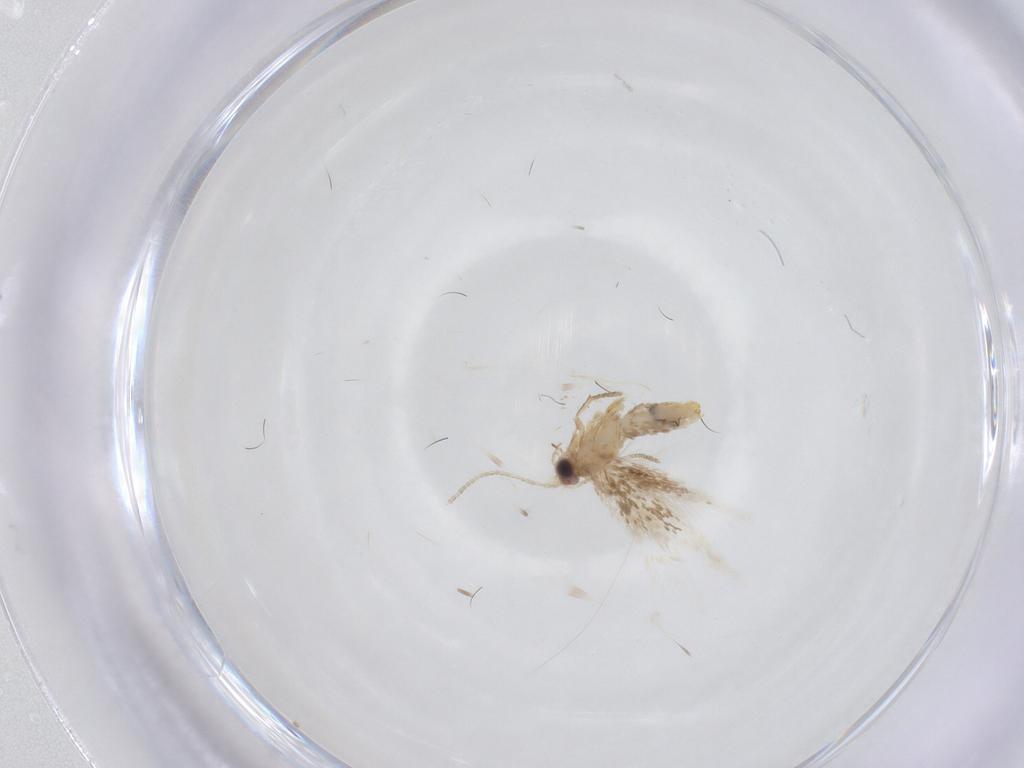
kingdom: Animalia
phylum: Arthropoda
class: Insecta
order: Lepidoptera
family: Nepticulidae
